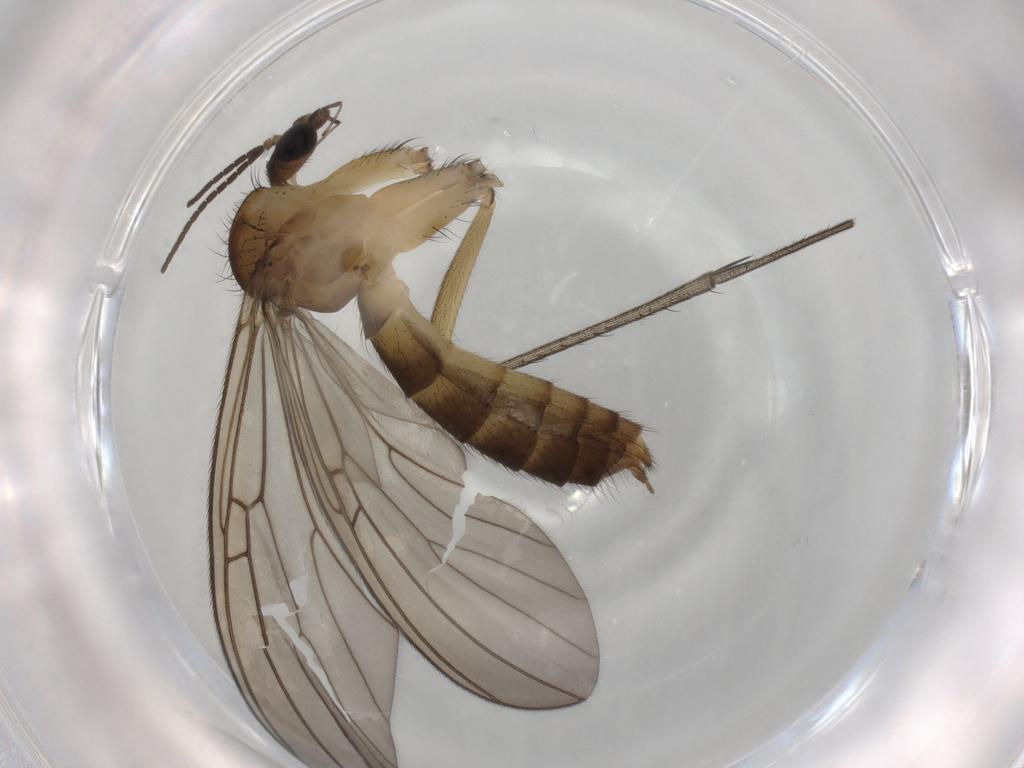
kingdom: Animalia
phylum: Arthropoda
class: Insecta
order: Diptera
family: Mycetophilidae
